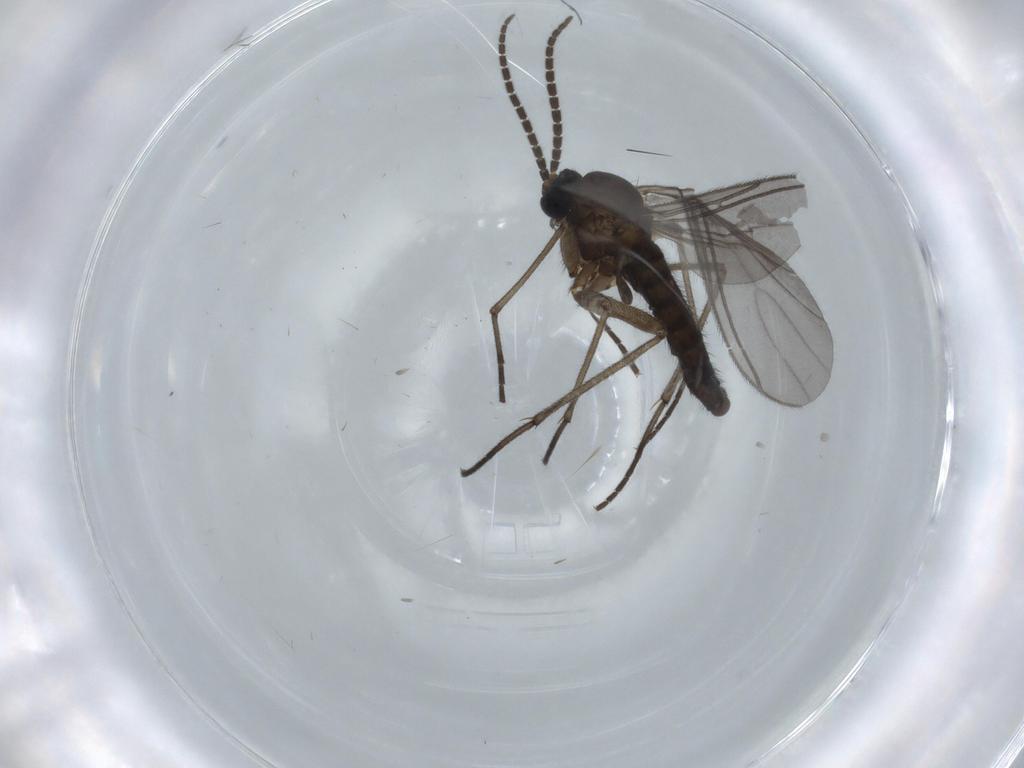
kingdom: Animalia
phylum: Arthropoda
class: Insecta
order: Diptera
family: Sciaridae
